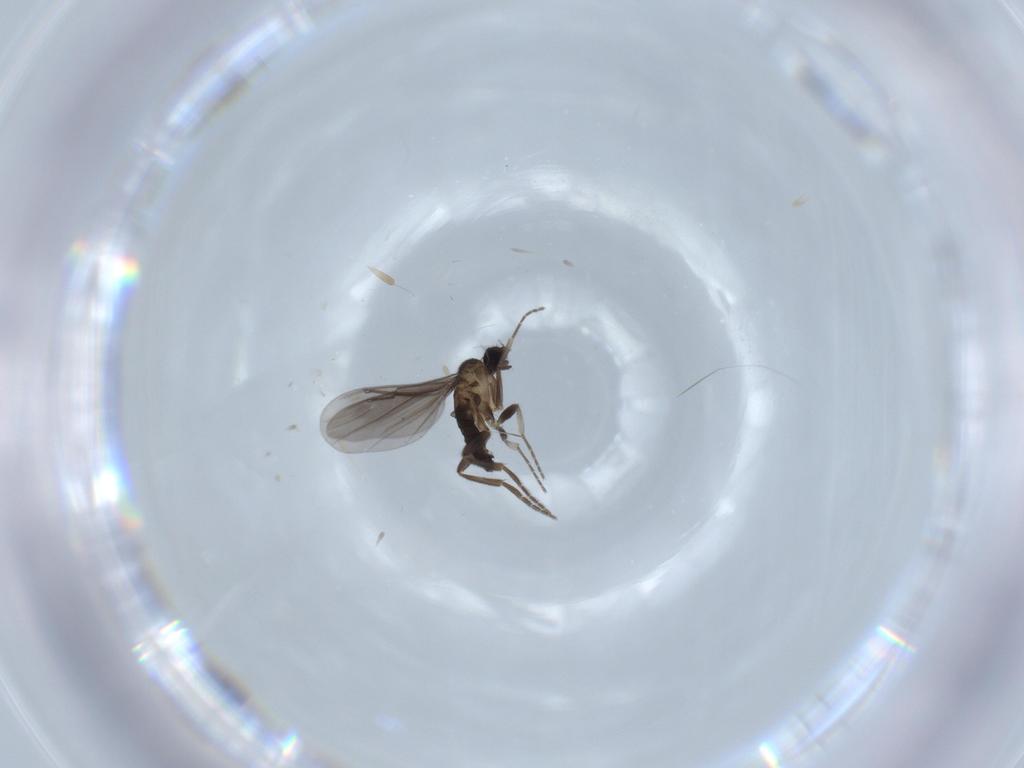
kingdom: Animalia
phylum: Arthropoda
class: Insecta
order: Diptera
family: Phoridae
